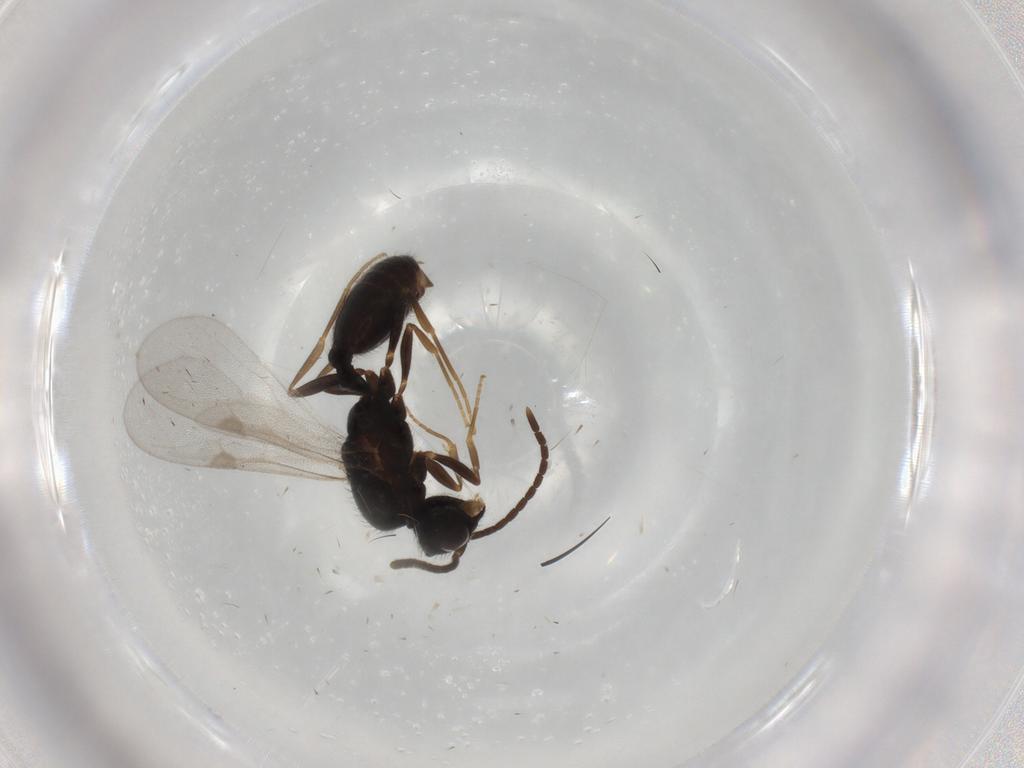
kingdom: Animalia
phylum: Arthropoda
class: Insecta
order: Hymenoptera
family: Formicidae
